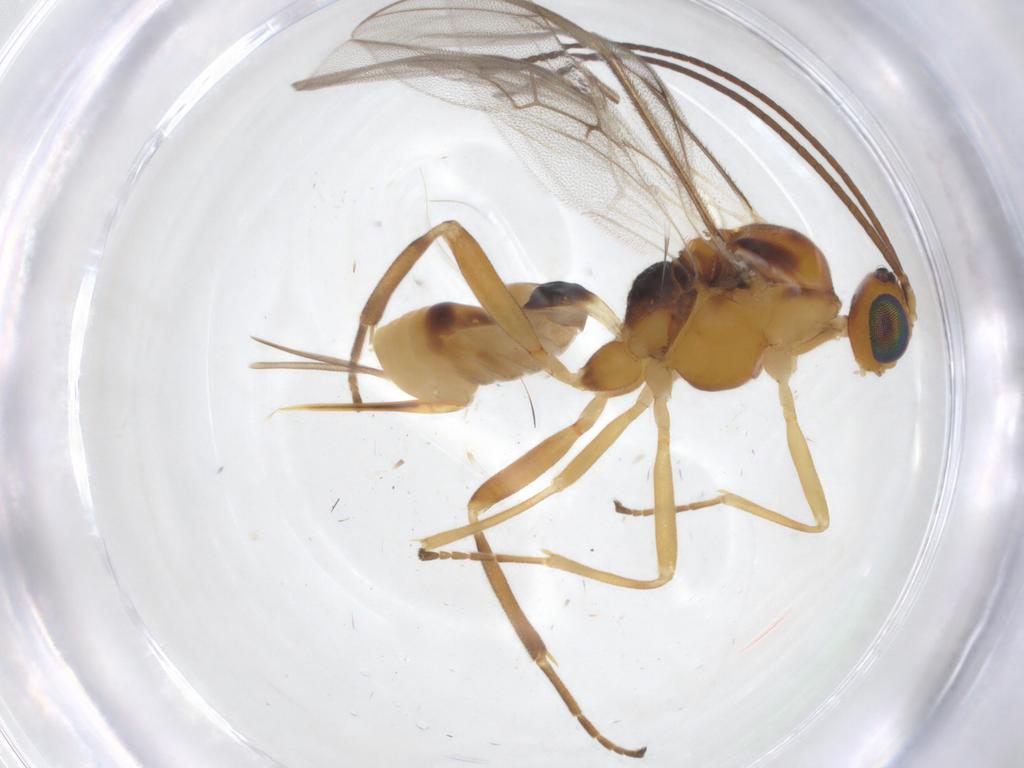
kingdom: Animalia
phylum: Arthropoda
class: Insecta
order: Hymenoptera
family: Braconidae
